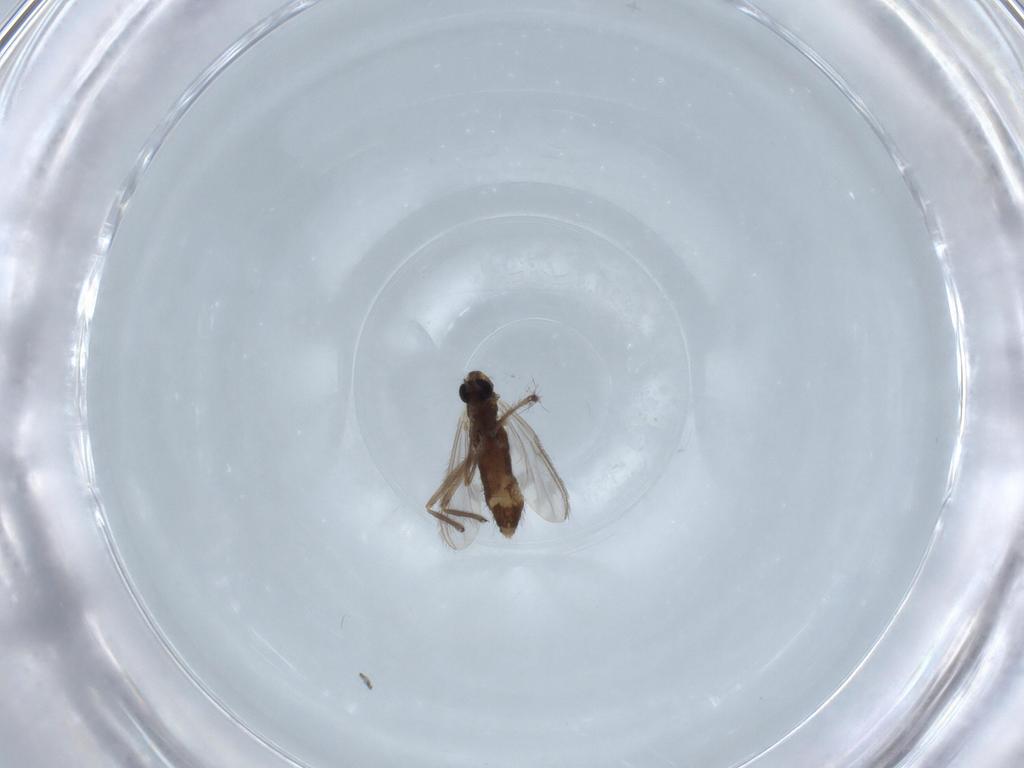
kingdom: Animalia
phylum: Arthropoda
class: Insecta
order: Diptera
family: Chironomidae
